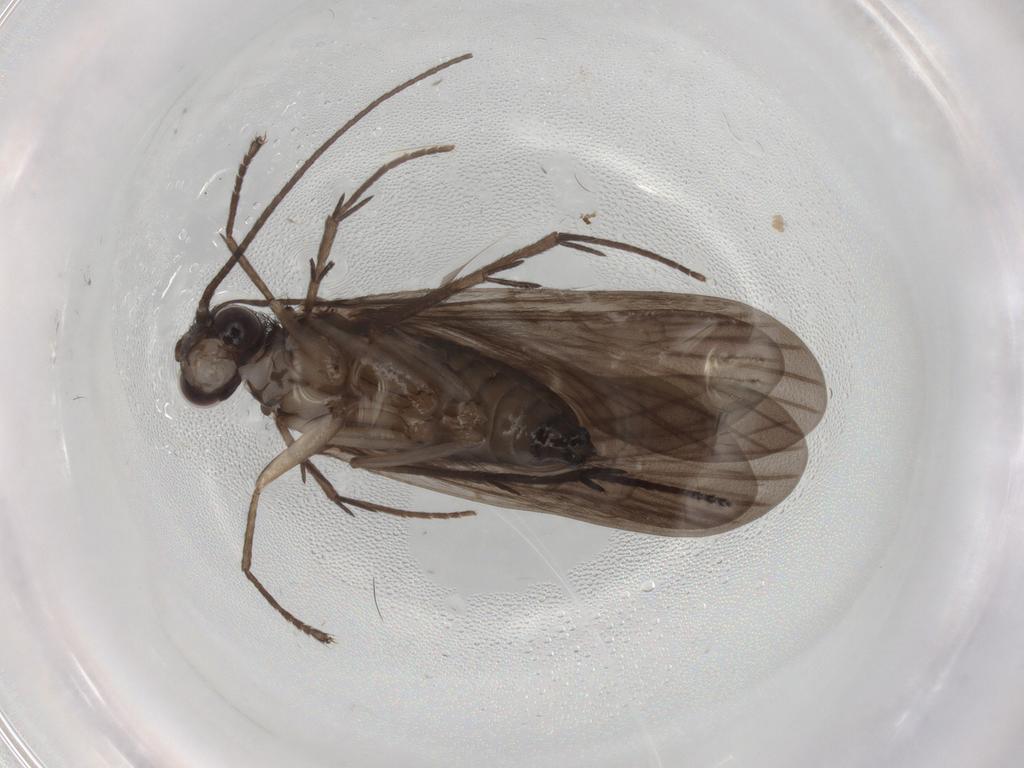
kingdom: Animalia
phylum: Arthropoda
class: Insecta
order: Trichoptera
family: Philopotamidae
